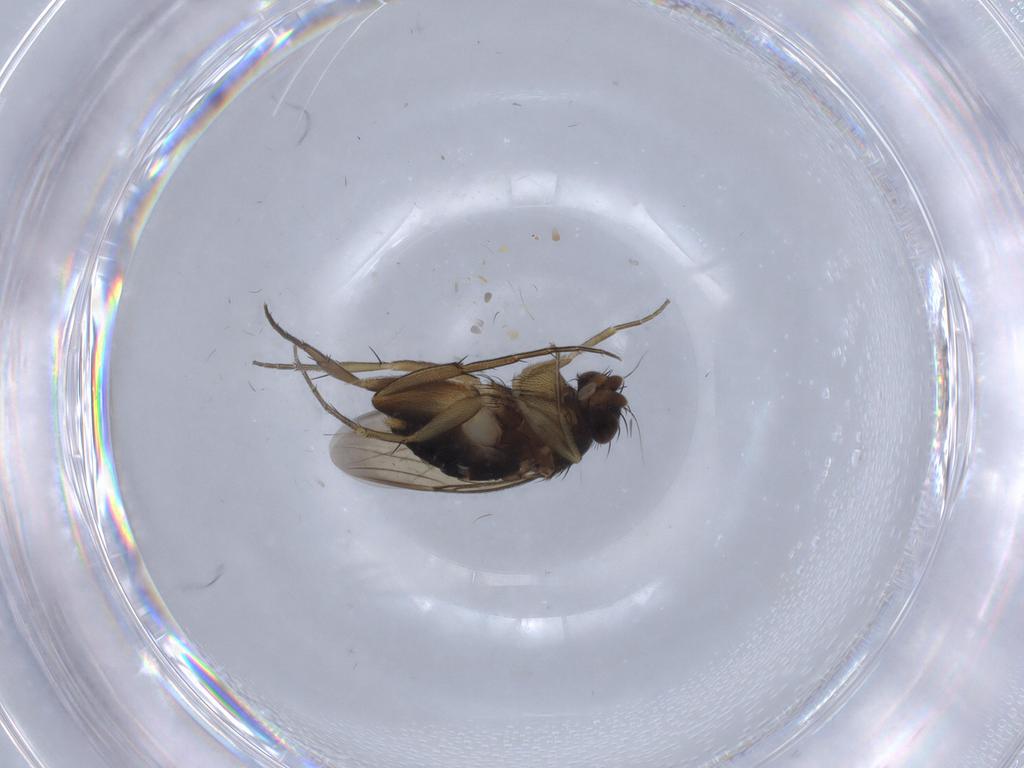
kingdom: Animalia
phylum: Arthropoda
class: Insecta
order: Diptera
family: Phoridae
